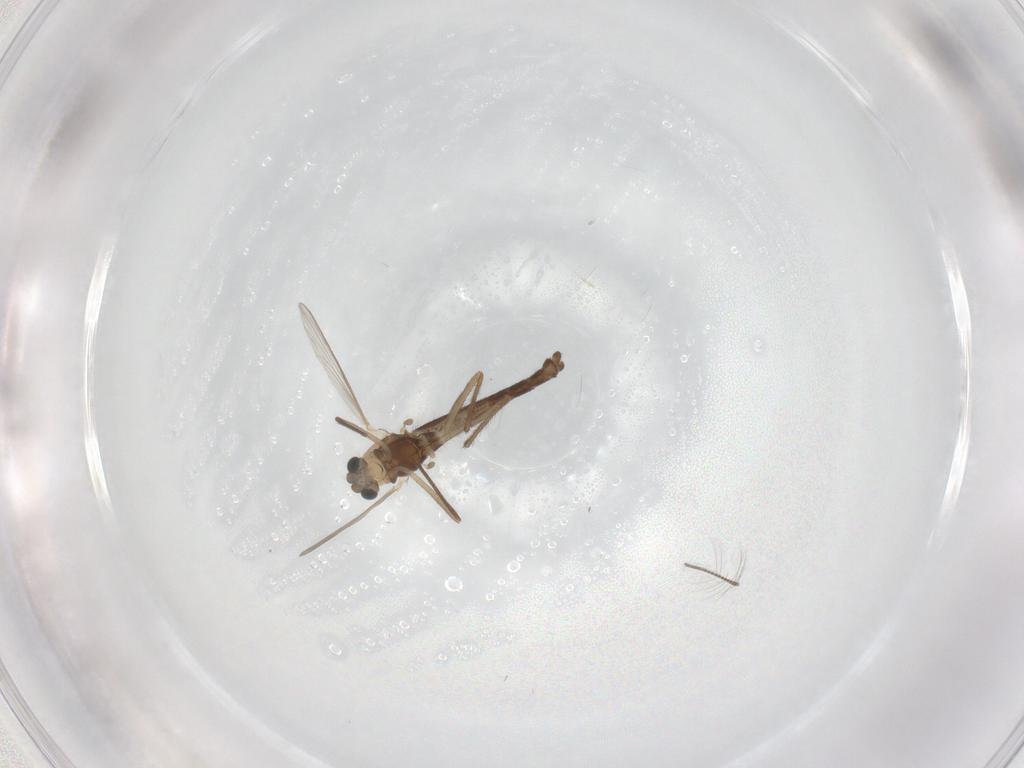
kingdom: Animalia
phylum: Arthropoda
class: Insecta
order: Diptera
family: Chironomidae
